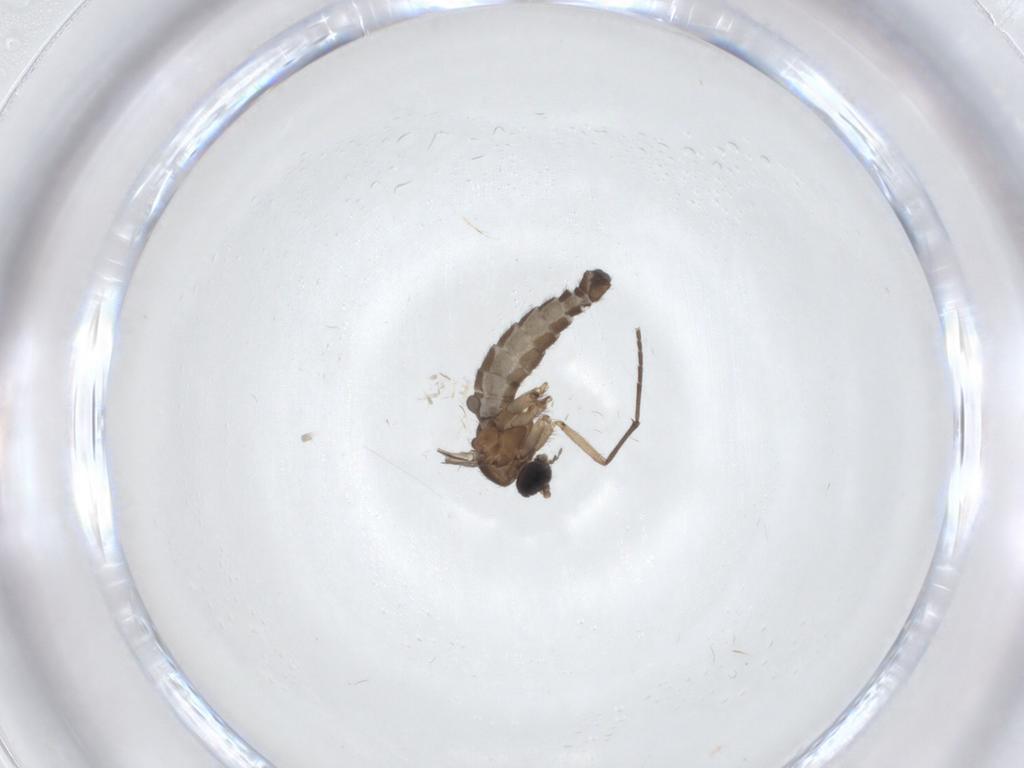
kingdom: Animalia
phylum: Arthropoda
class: Insecta
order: Diptera
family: Sciaridae
